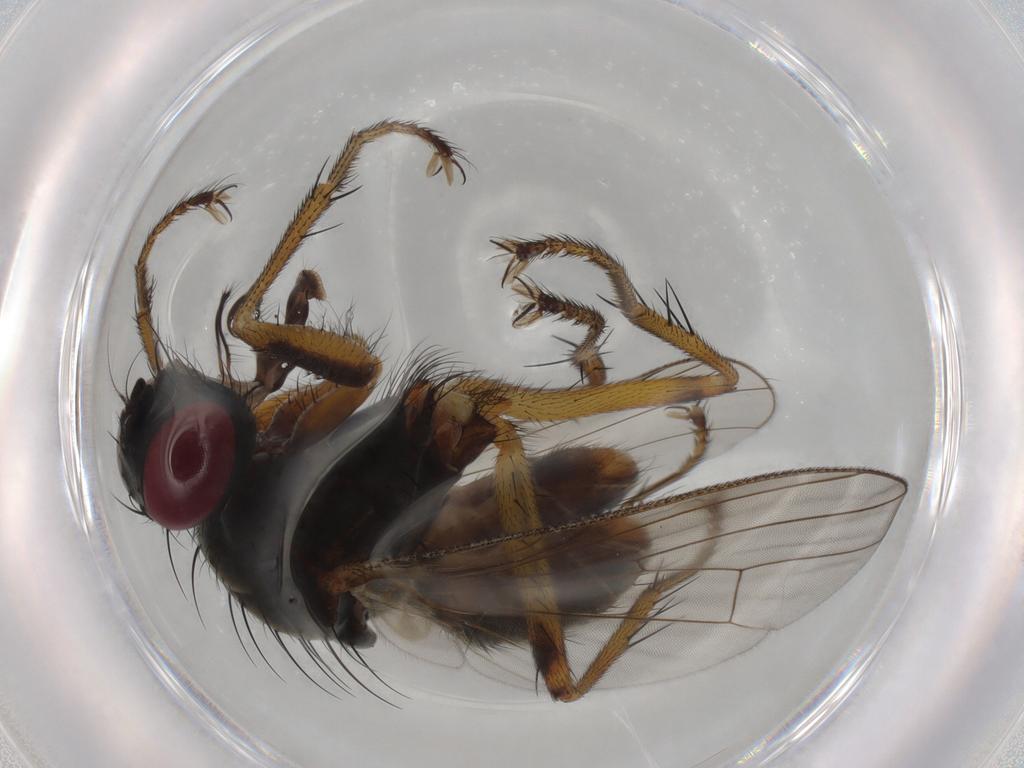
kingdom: Animalia
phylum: Arthropoda
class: Insecta
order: Diptera
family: Muscidae
